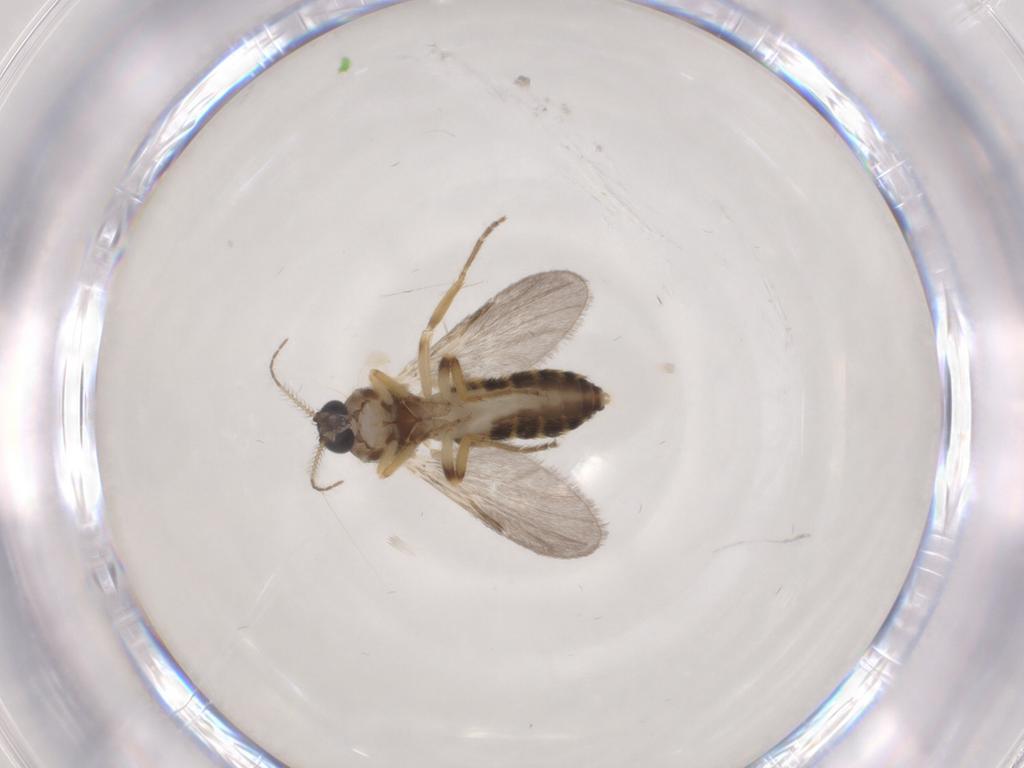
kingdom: Animalia
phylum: Arthropoda
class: Insecta
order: Diptera
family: Ceratopogonidae
